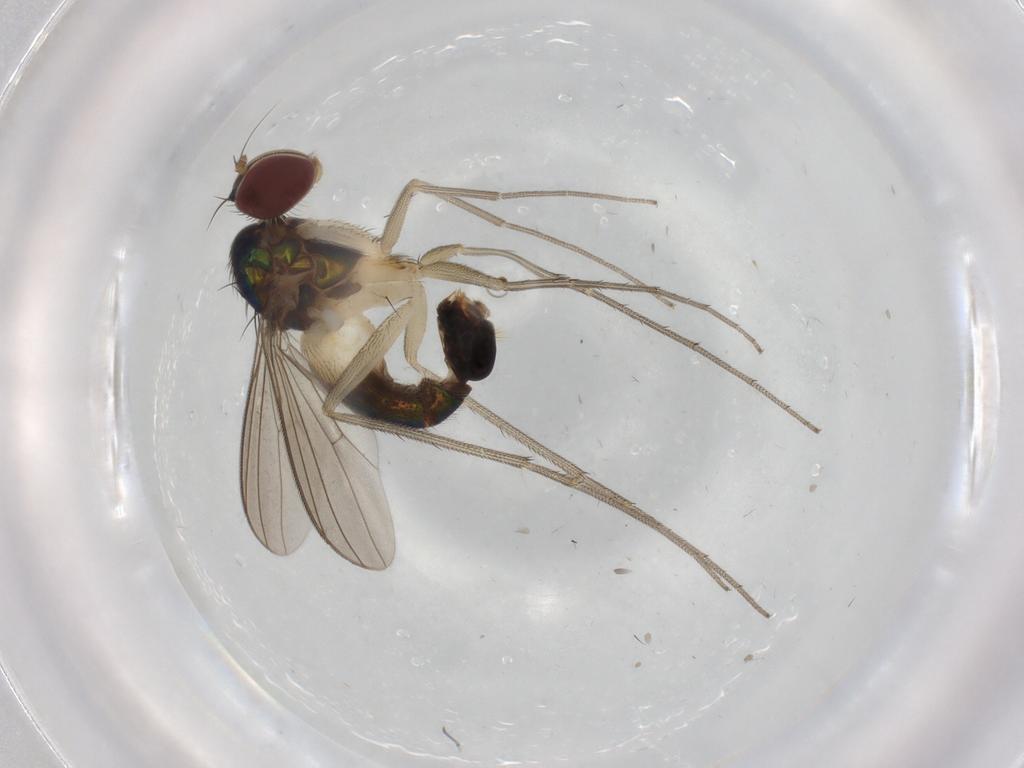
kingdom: Animalia
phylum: Arthropoda
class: Insecta
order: Diptera
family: Dolichopodidae
